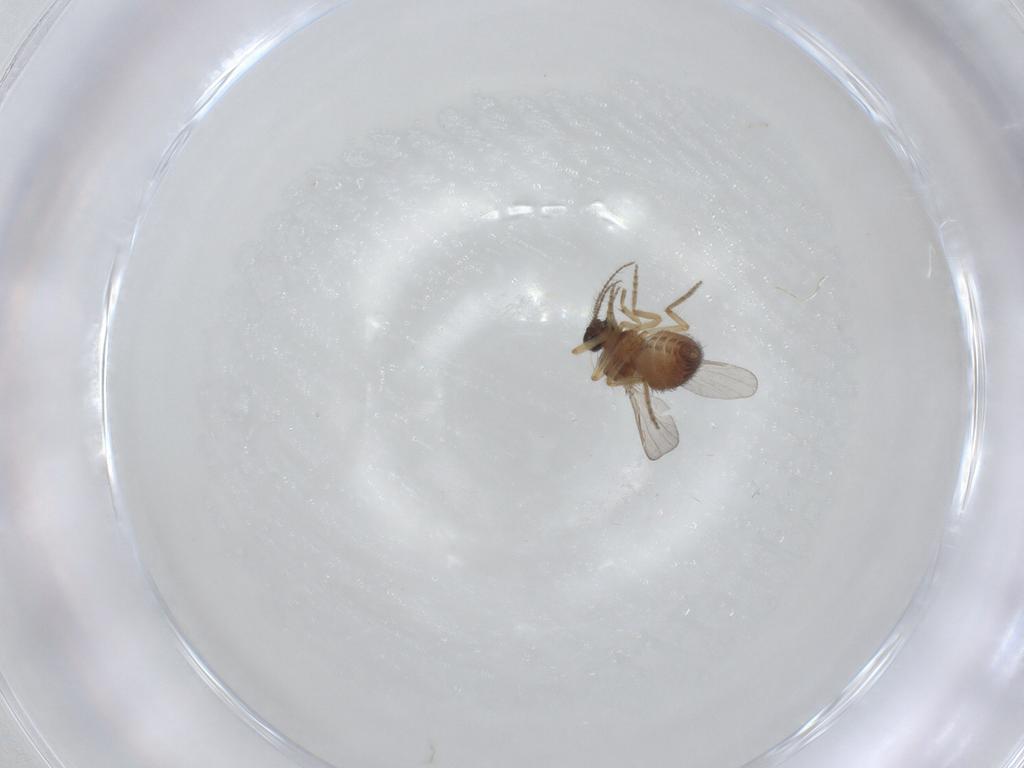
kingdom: Animalia
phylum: Arthropoda
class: Insecta
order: Diptera
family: Ceratopogonidae
